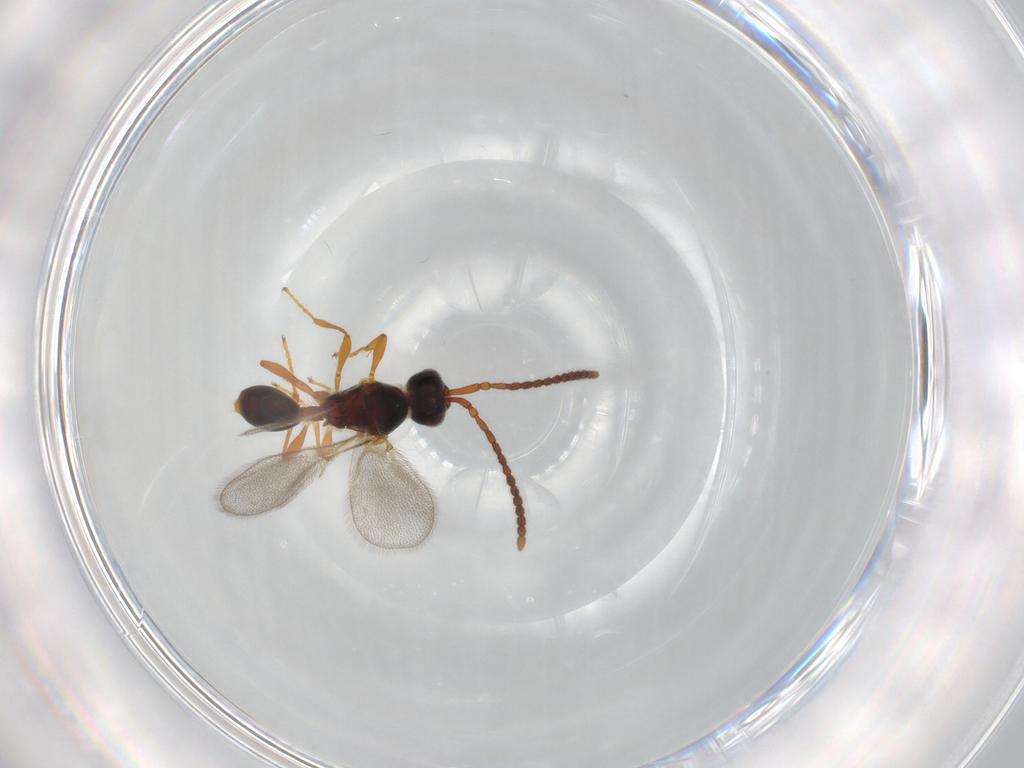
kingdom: Animalia
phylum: Arthropoda
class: Insecta
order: Hymenoptera
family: Diapriidae
